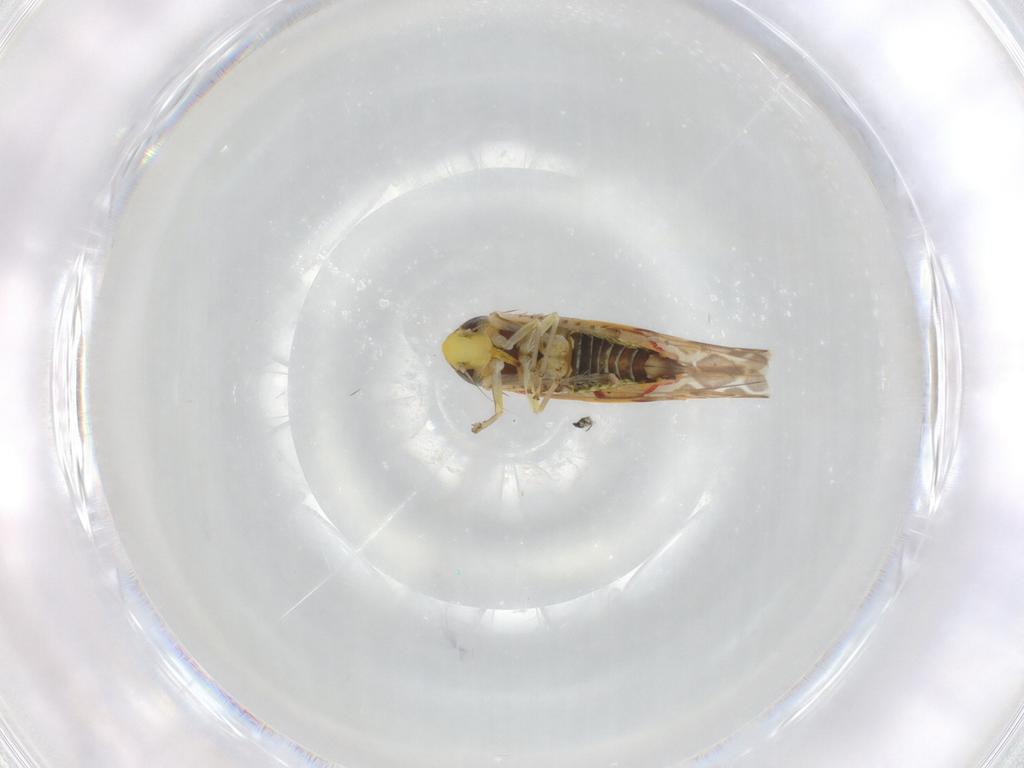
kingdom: Animalia
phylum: Arthropoda
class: Insecta
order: Hemiptera
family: Cicadellidae
